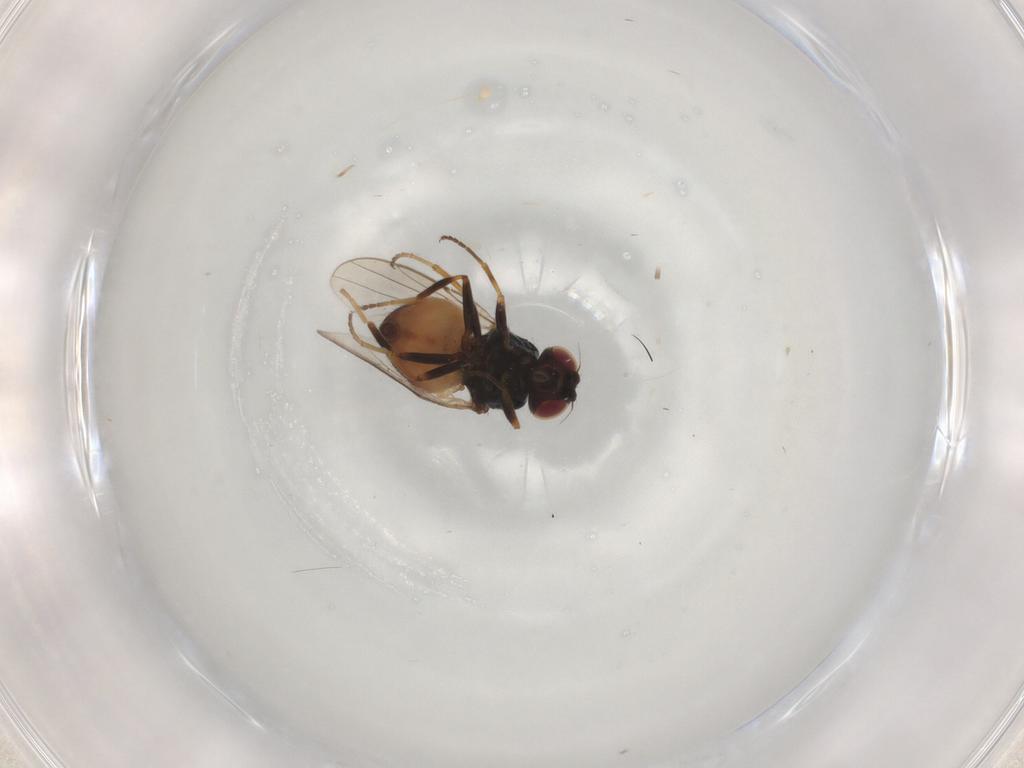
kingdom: Animalia
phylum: Arthropoda
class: Insecta
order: Diptera
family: Chloropidae
